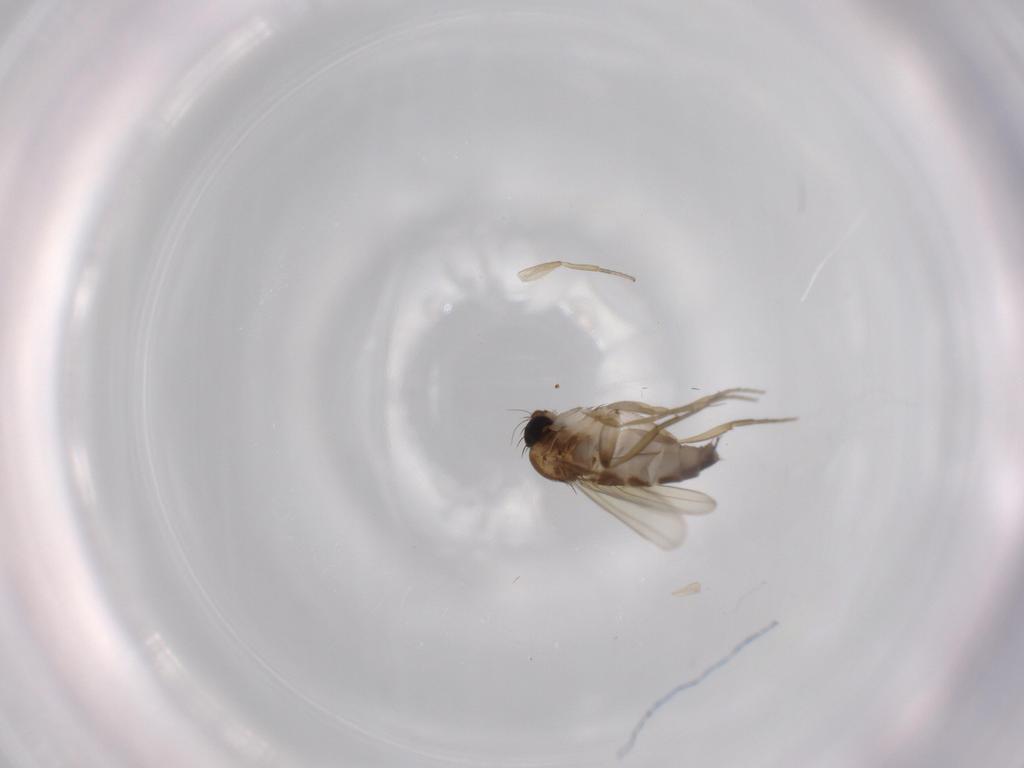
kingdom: Animalia
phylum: Arthropoda
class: Insecta
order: Diptera
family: Phoridae
